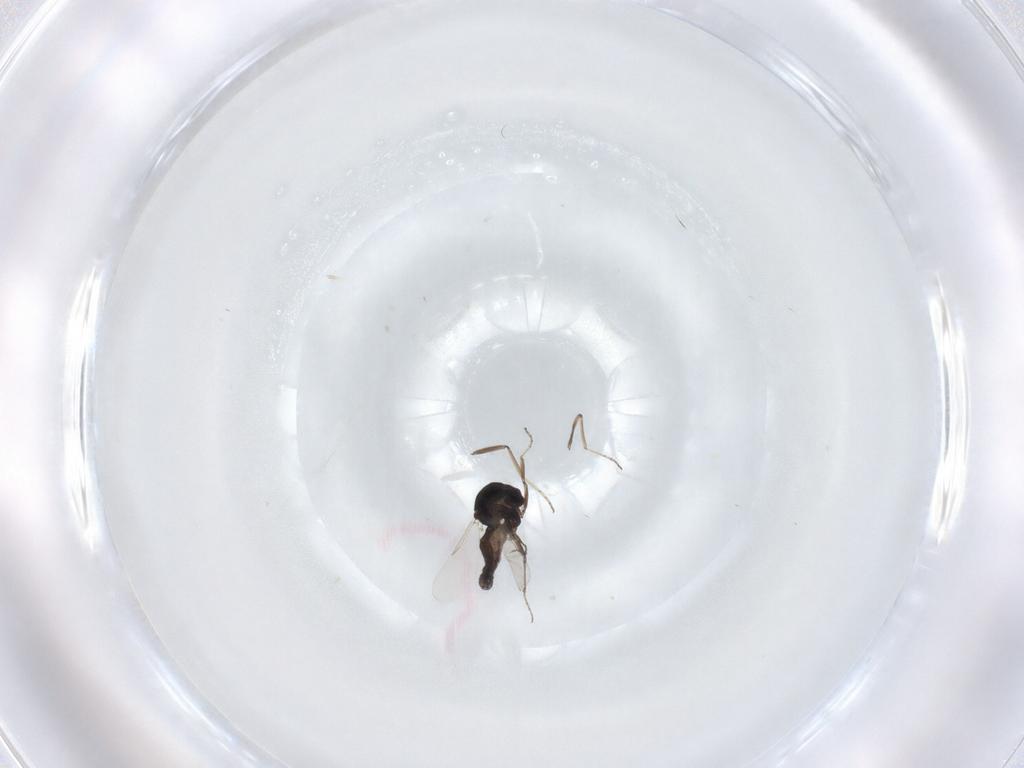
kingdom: Animalia
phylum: Arthropoda
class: Insecta
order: Diptera
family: Ceratopogonidae
